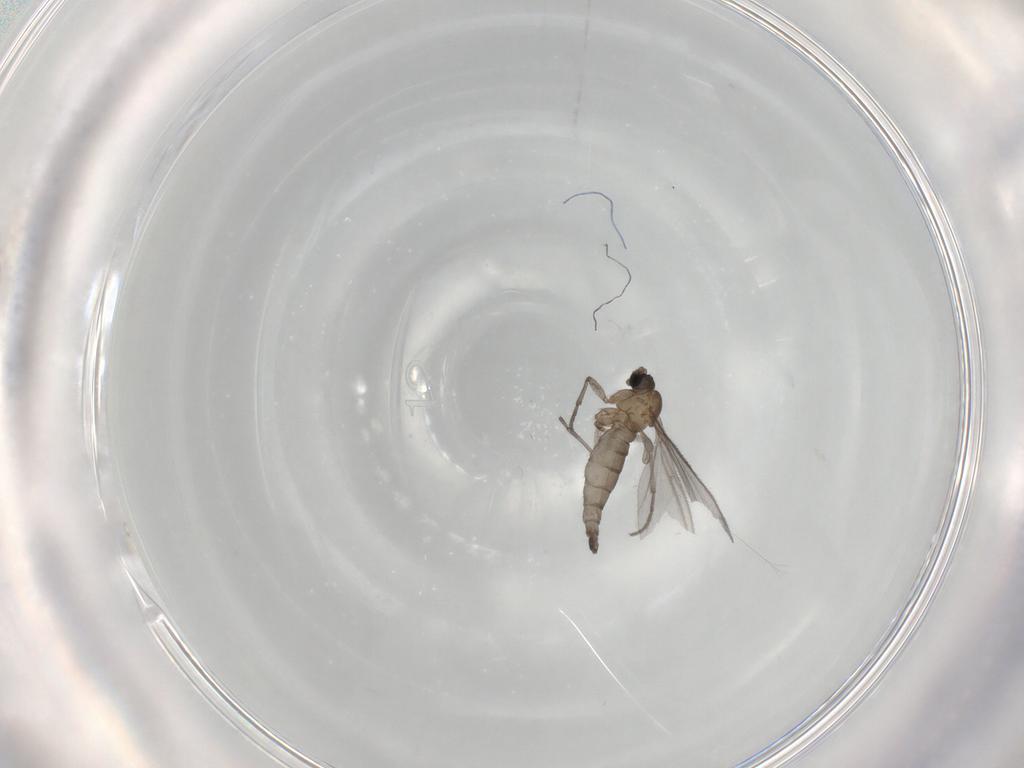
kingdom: Animalia
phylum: Arthropoda
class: Insecta
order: Diptera
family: Sciaridae
